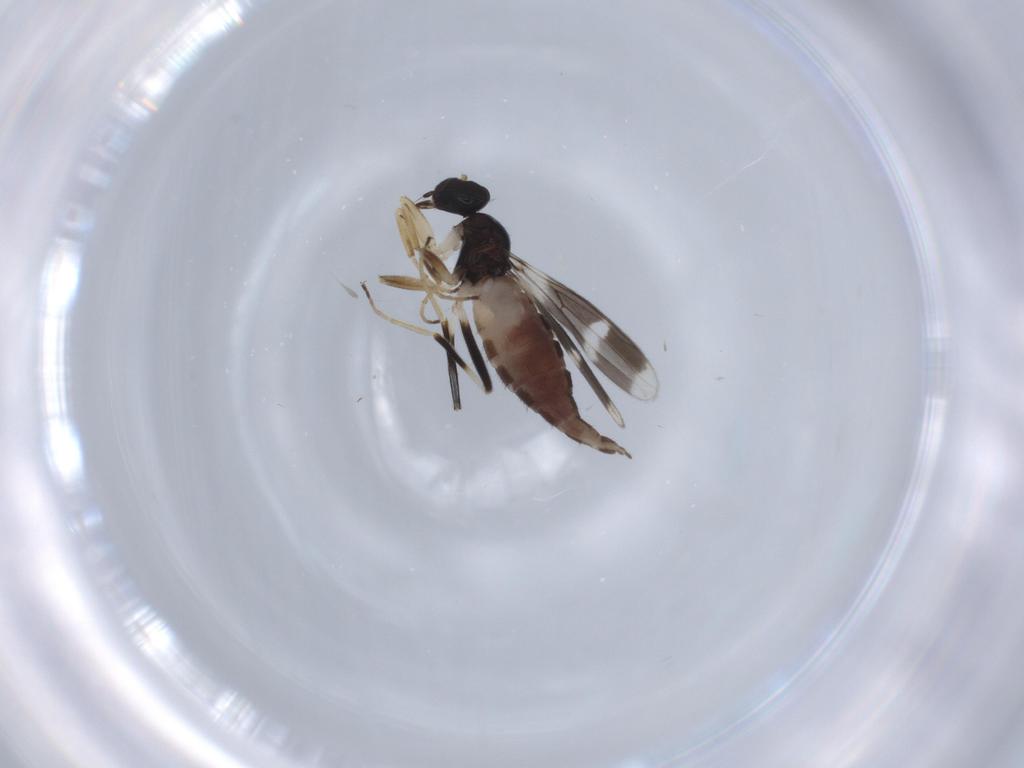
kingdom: Animalia
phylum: Arthropoda
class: Insecta
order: Diptera
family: Hybotidae
